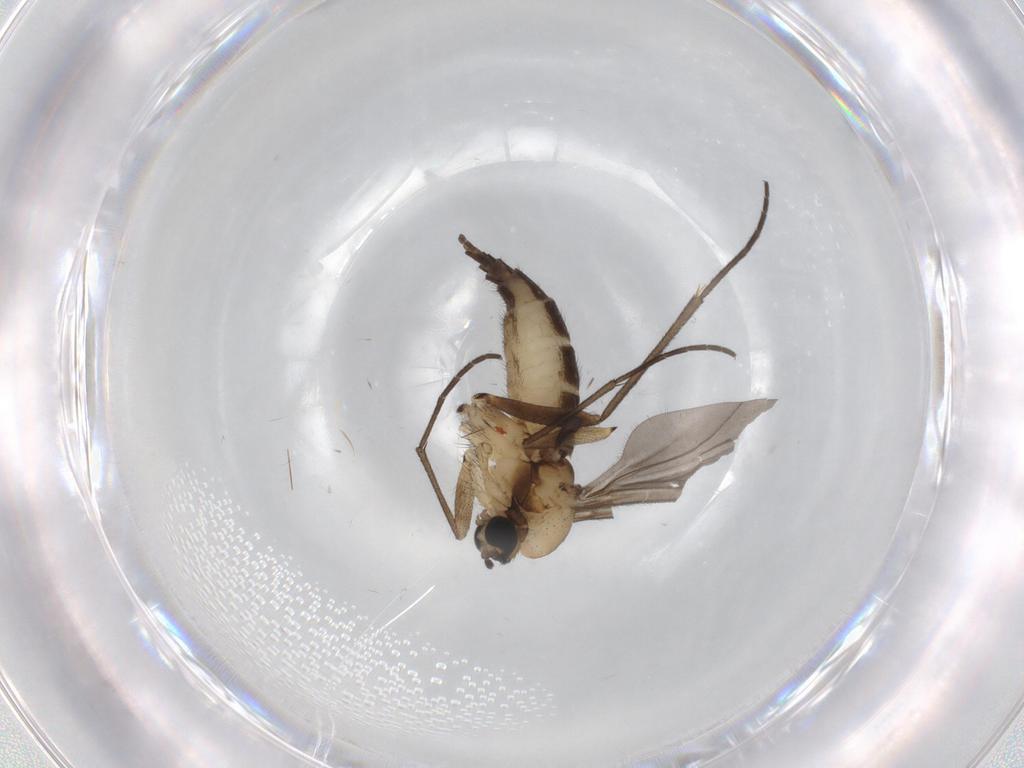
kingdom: Animalia
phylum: Arthropoda
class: Insecta
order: Diptera
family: Sciaridae
